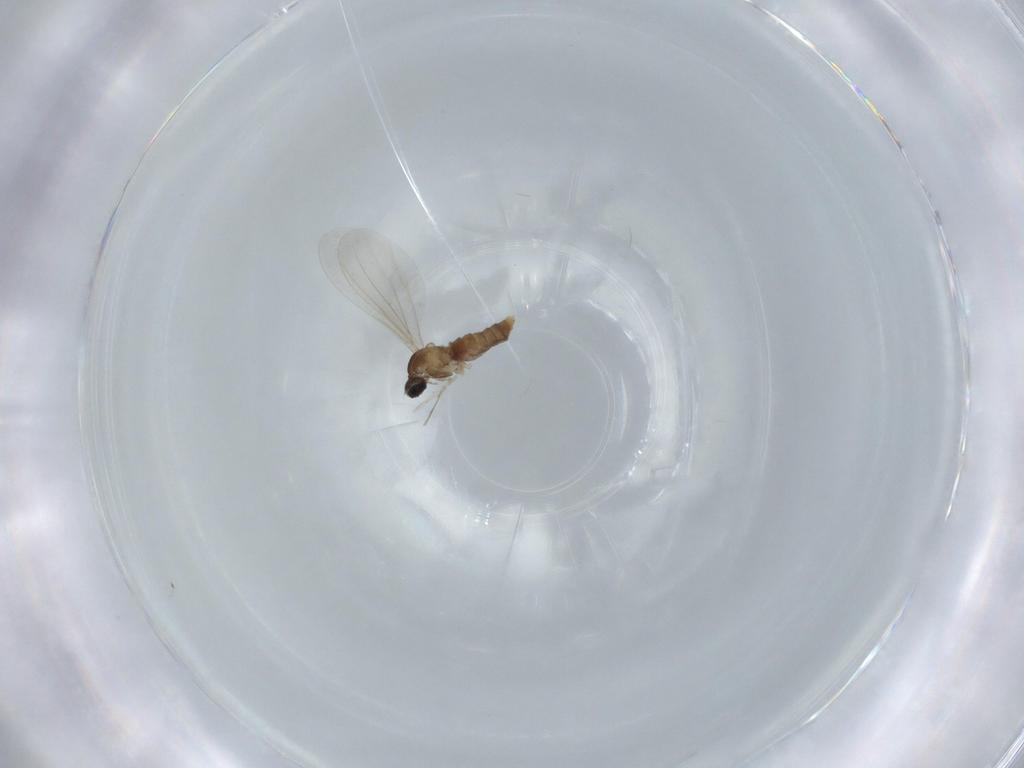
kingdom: Animalia
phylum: Arthropoda
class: Insecta
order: Diptera
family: Cecidomyiidae
